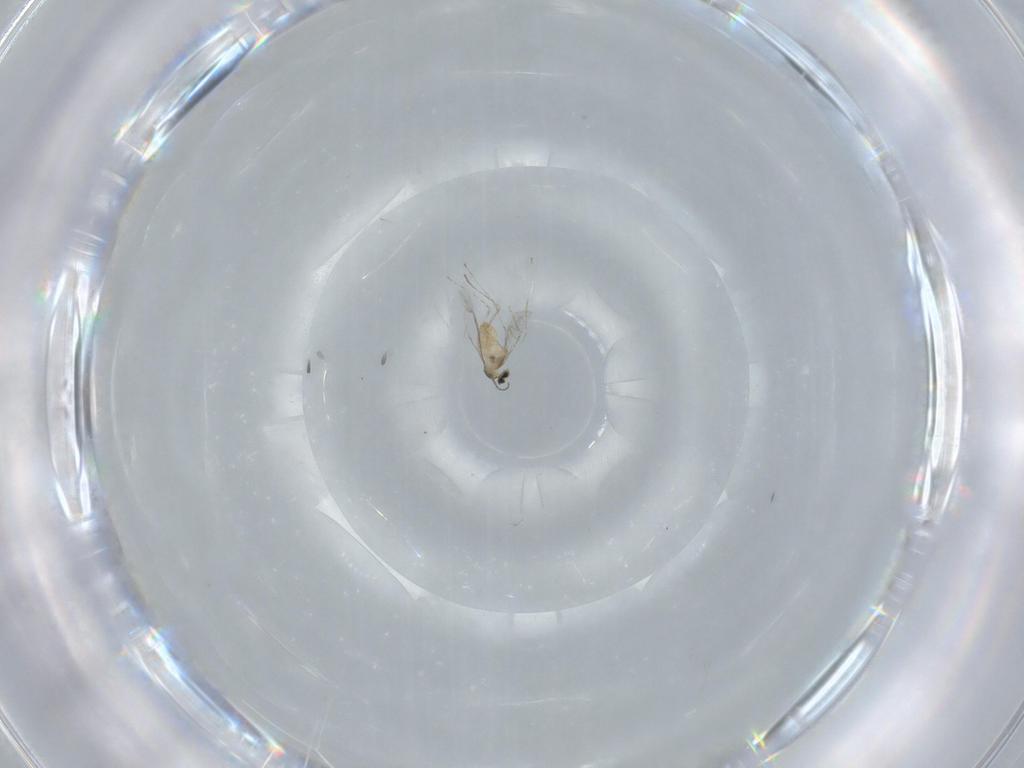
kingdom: Animalia
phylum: Arthropoda
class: Insecta
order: Diptera
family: Cecidomyiidae
